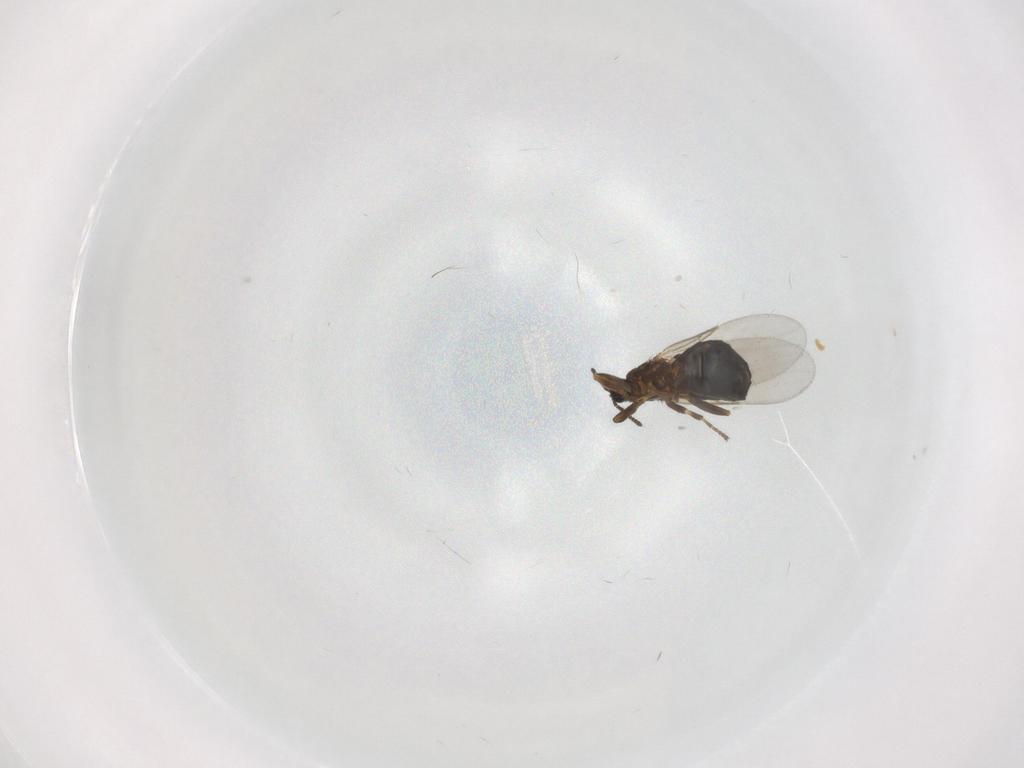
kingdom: Animalia
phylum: Arthropoda
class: Insecta
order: Diptera
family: Scatopsidae
